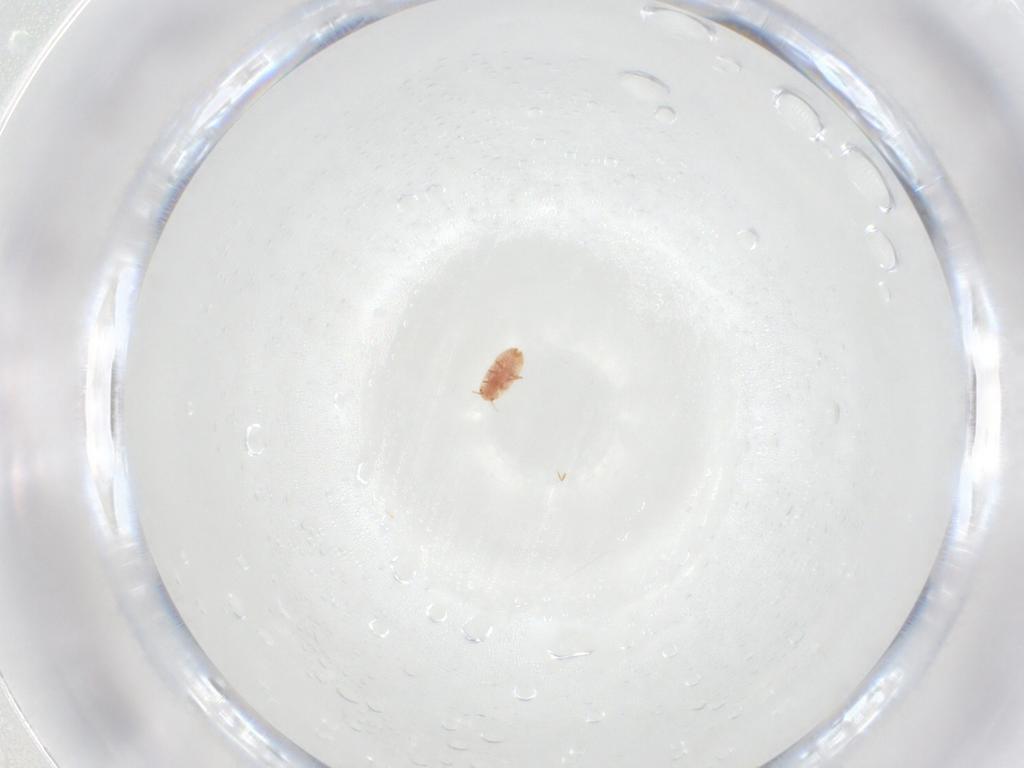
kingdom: Animalia
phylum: Arthropoda
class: Insecta
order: Hemiptera
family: Coccidae
